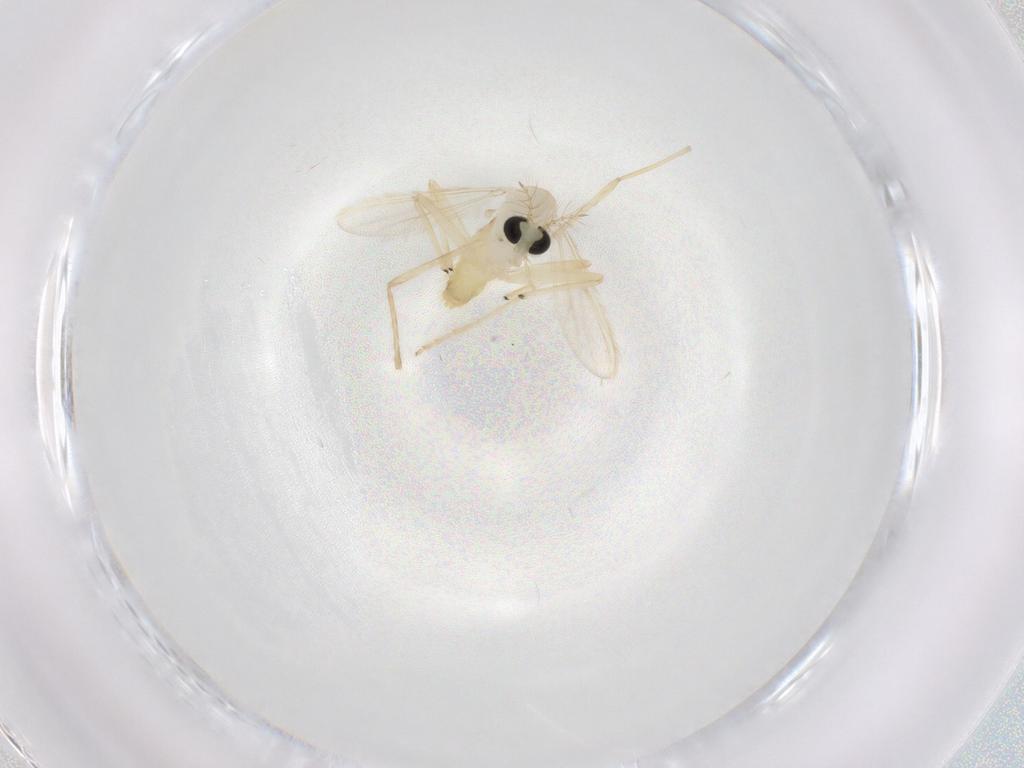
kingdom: Animalia
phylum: Arthropoda
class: Insecta
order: Diptera
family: Chironomidae
